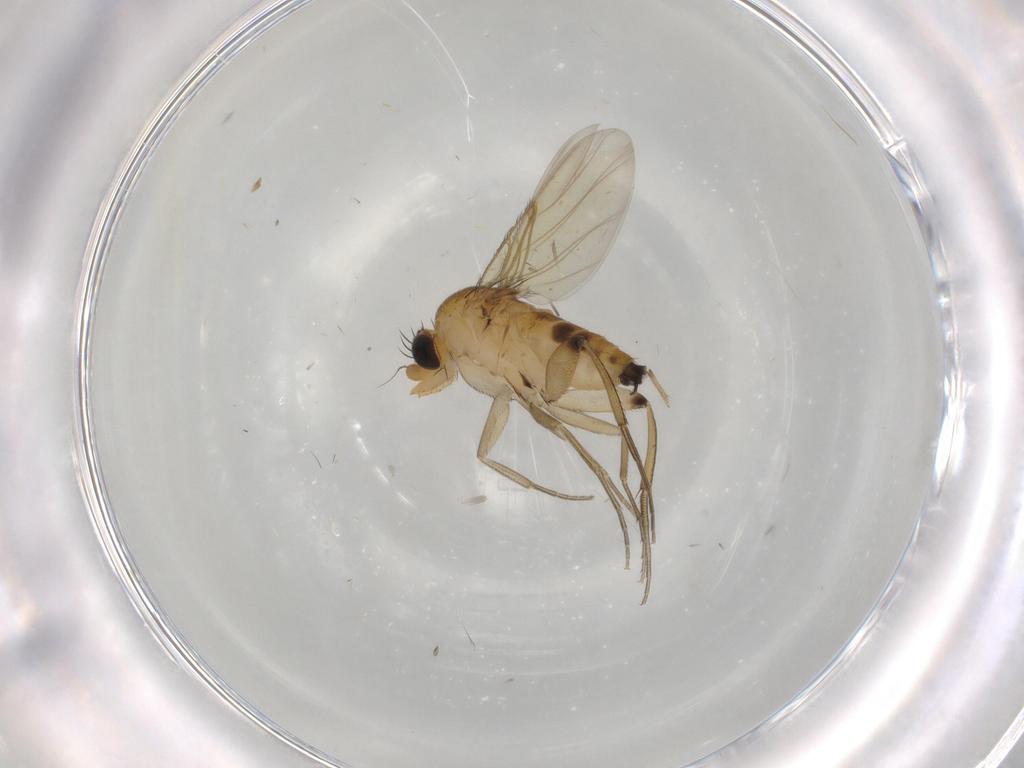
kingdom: Animalia
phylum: Arthropoda
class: Insecta
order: Diptera
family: Phoridae
